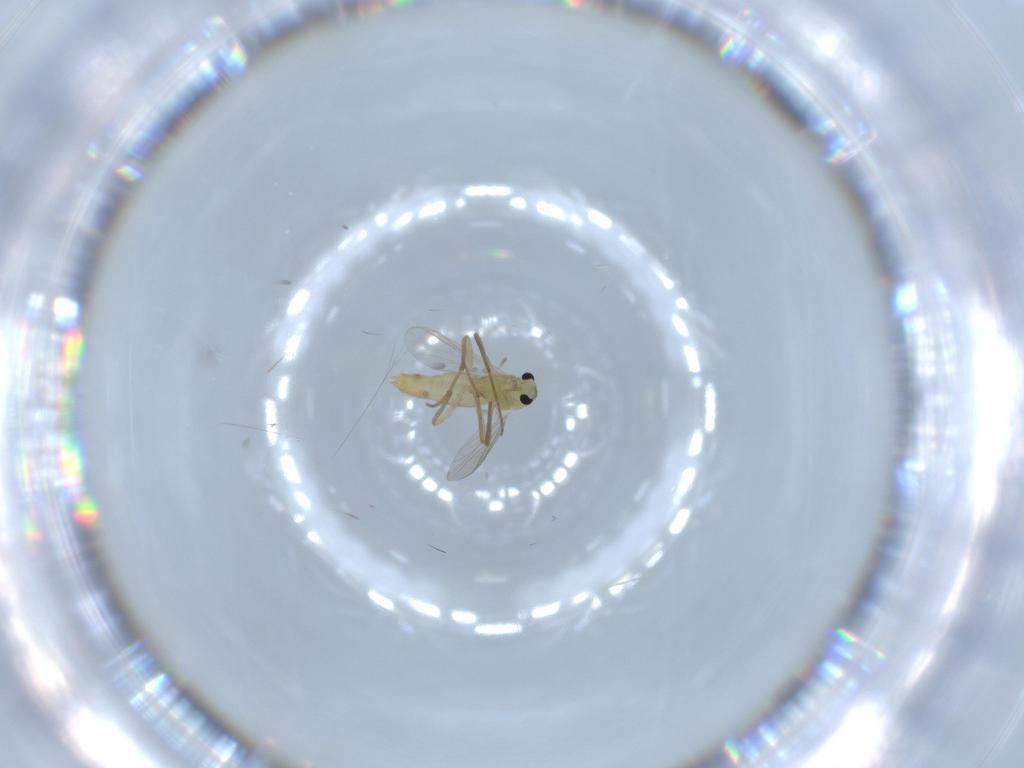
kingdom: Animalia
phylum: Arthropoda
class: Insecta
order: Diptera
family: Chironomidae
